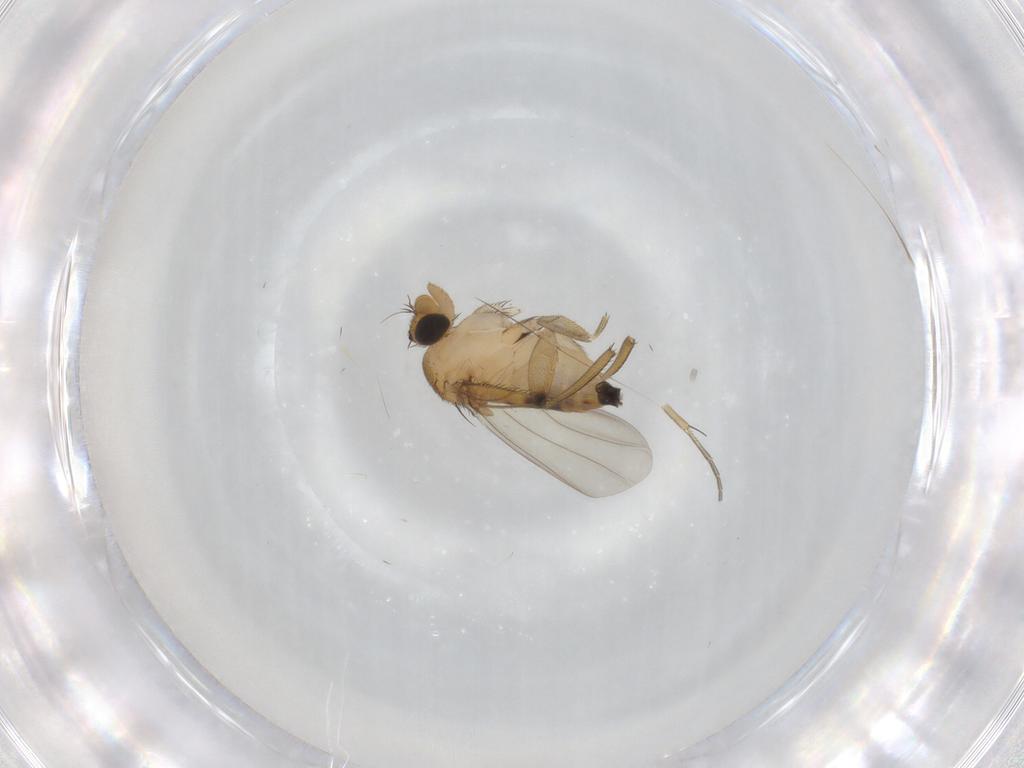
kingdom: Animalia
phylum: Arthropoda
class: Insecta
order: Diptera
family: Phoridae
